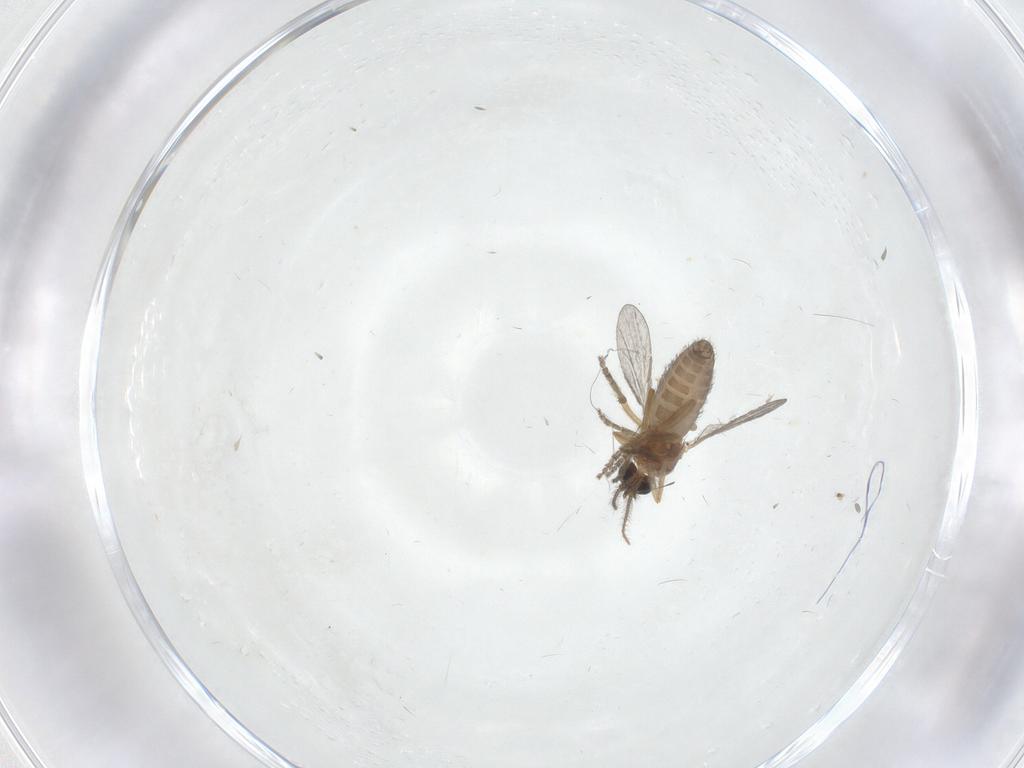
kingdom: Animalia
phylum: Arthropoda
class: Insecta
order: Diptera
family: Ceratopogonidae
